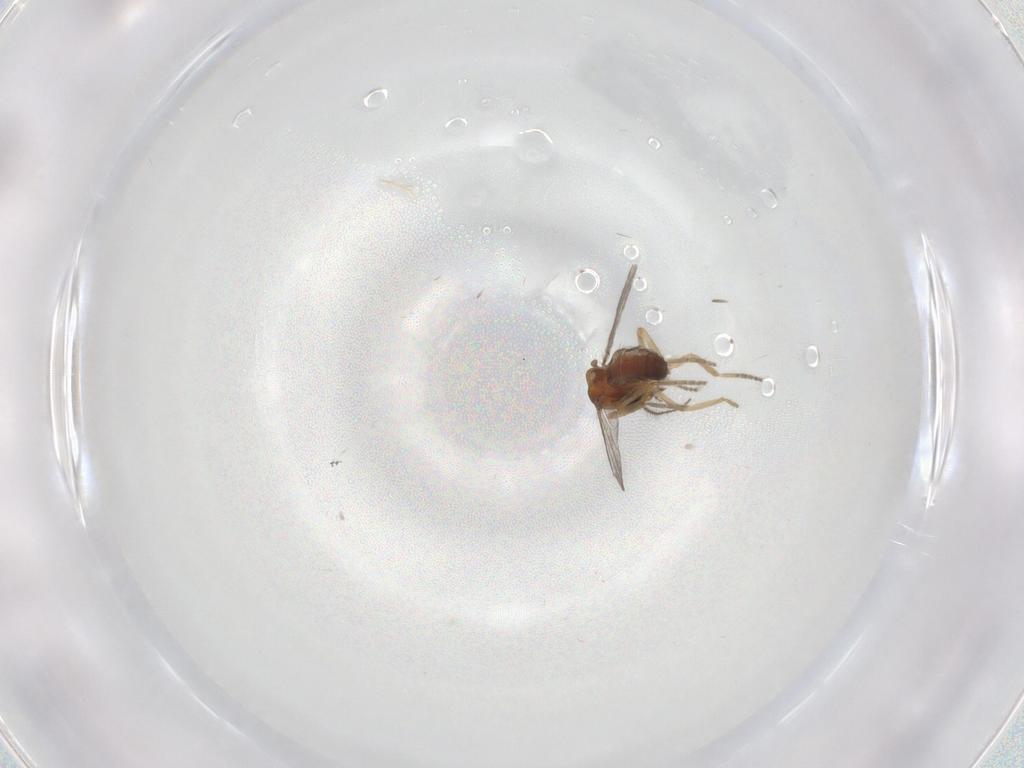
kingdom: Animalia
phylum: Arthropoda
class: Insecta
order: Diptera
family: Ceratopogonidae
